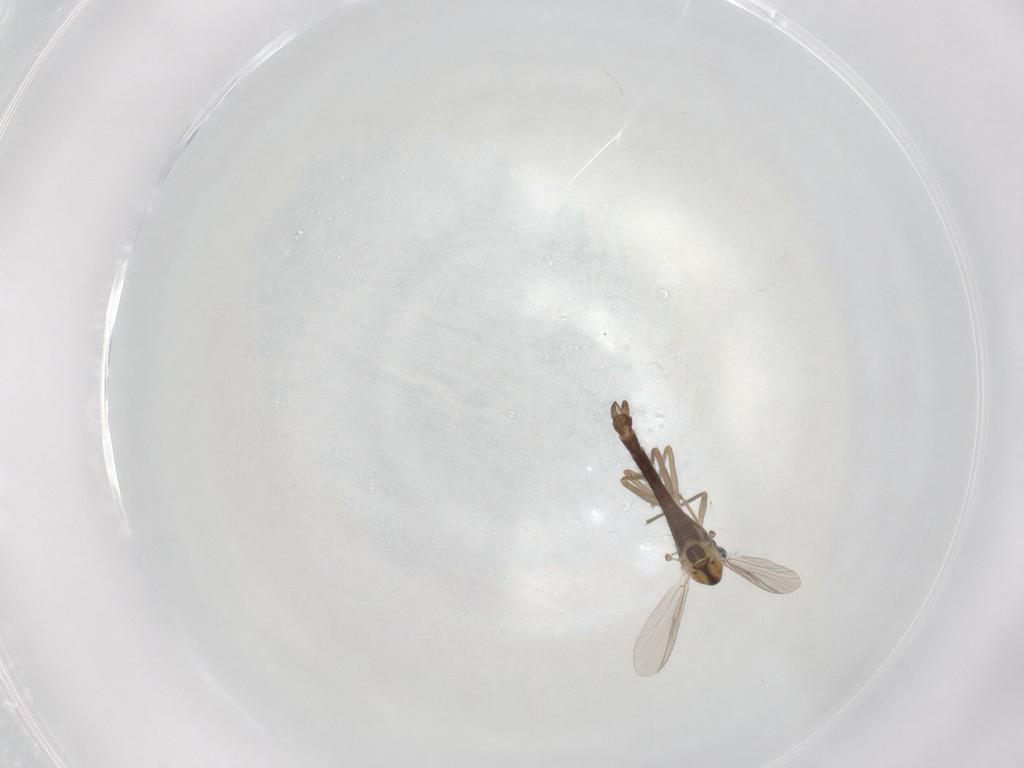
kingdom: Animalia
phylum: Arthropoda
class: Insecta
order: Diptera
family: Chironomidae
